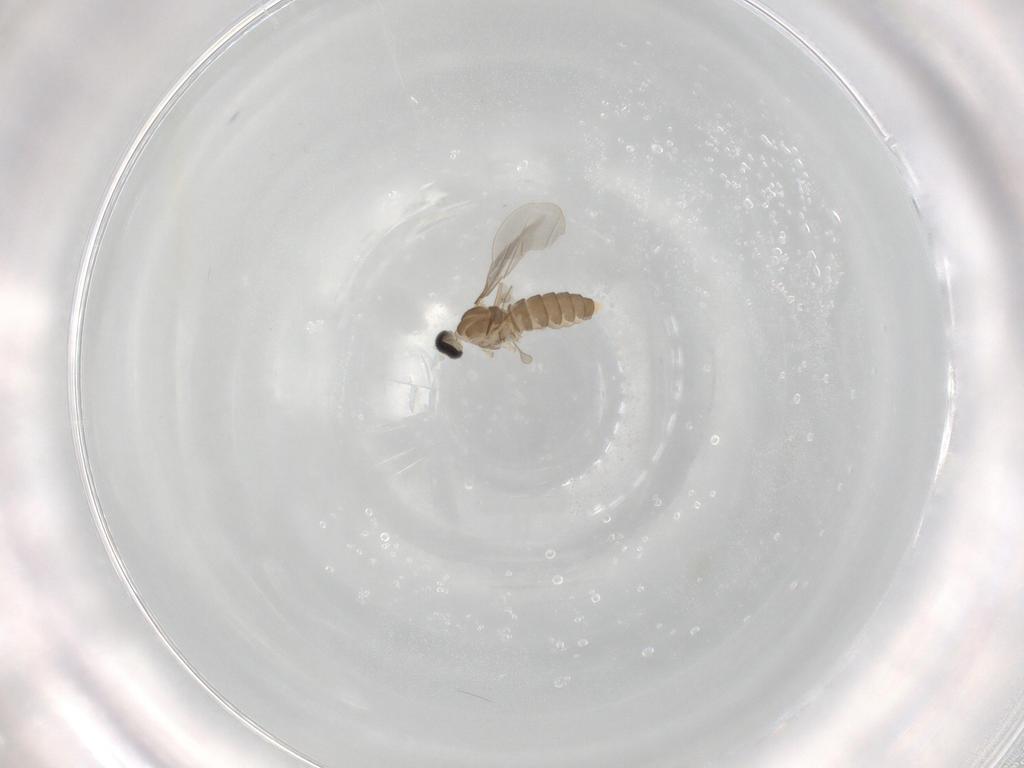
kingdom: Animalia
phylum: Arthropoda
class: Insecta
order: Diptera
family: Cecidomyiidae
